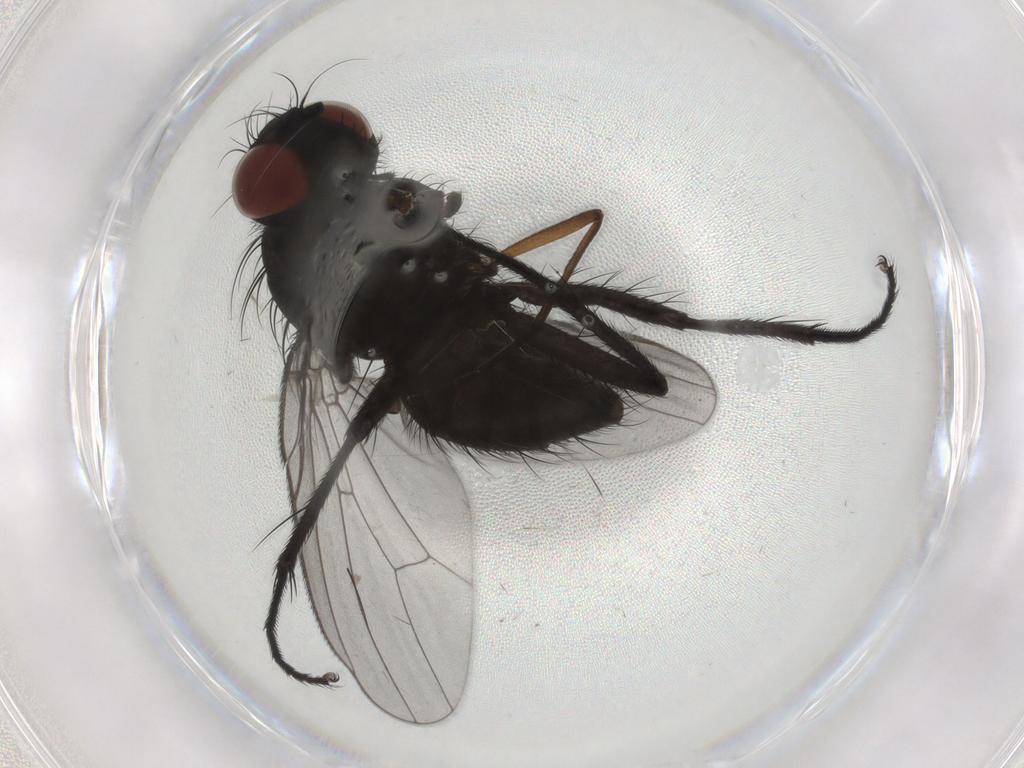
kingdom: Animalia
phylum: Arthropoda
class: Insecta
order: Diptera
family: Muscidae
